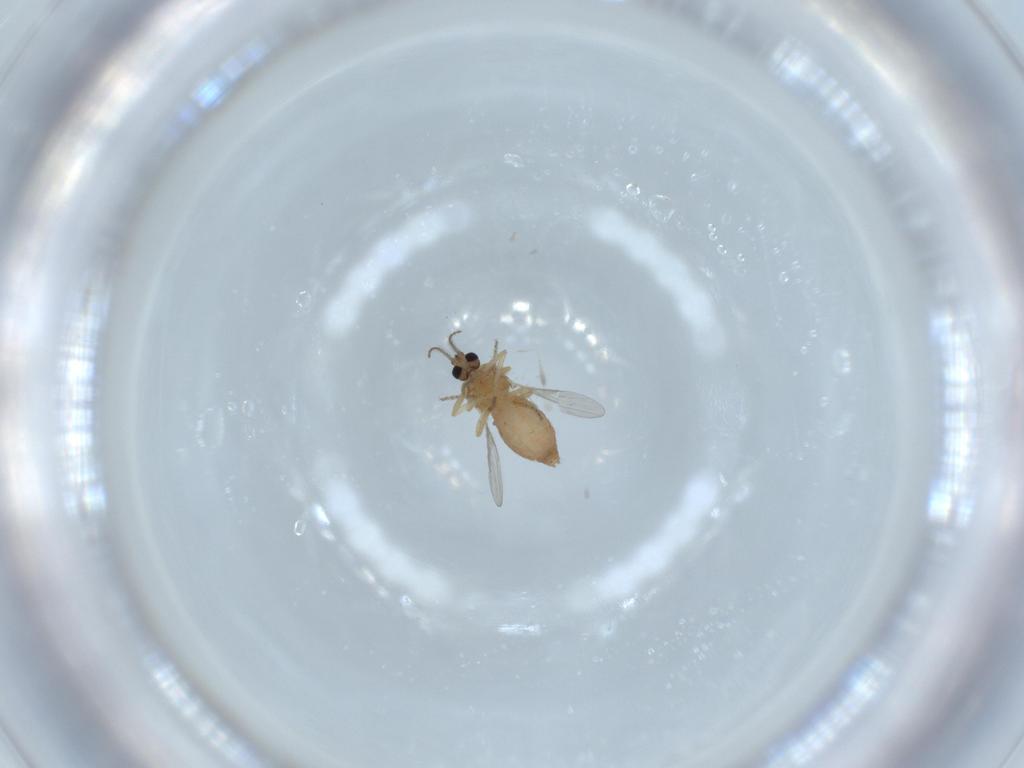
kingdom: Animalia
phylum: Arthropoda
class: Insecta
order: Diptera
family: Ceratopogonidae
